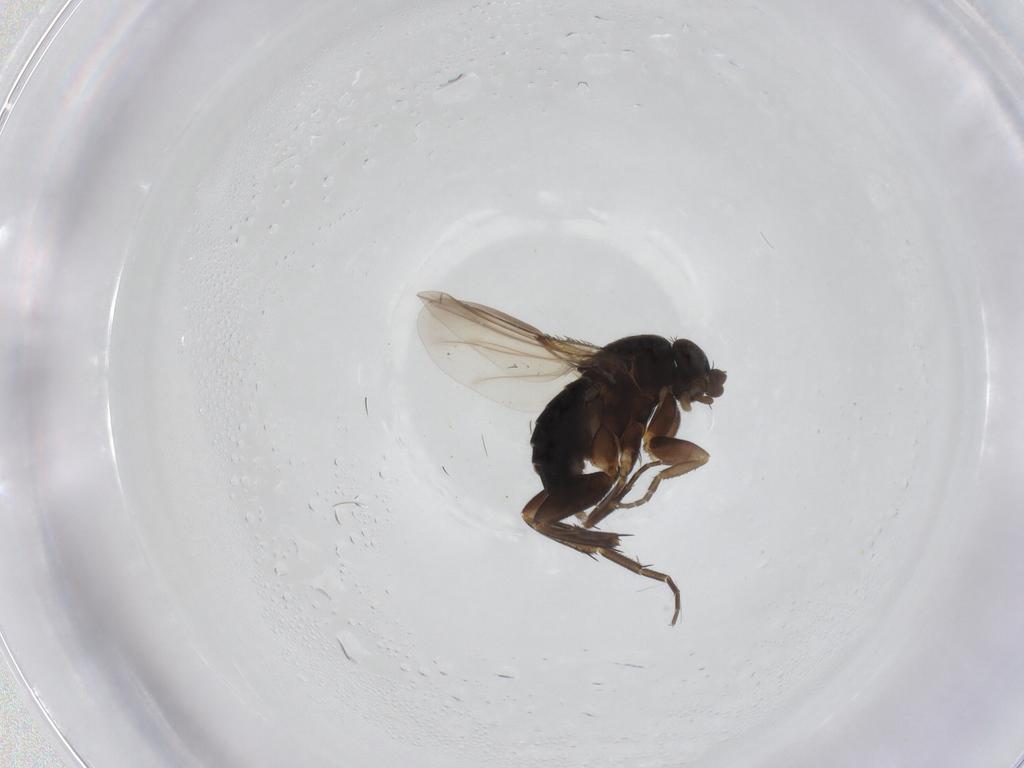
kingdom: Animalia
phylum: Arthropoda
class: Insecta
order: Diptera
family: Phoridae
